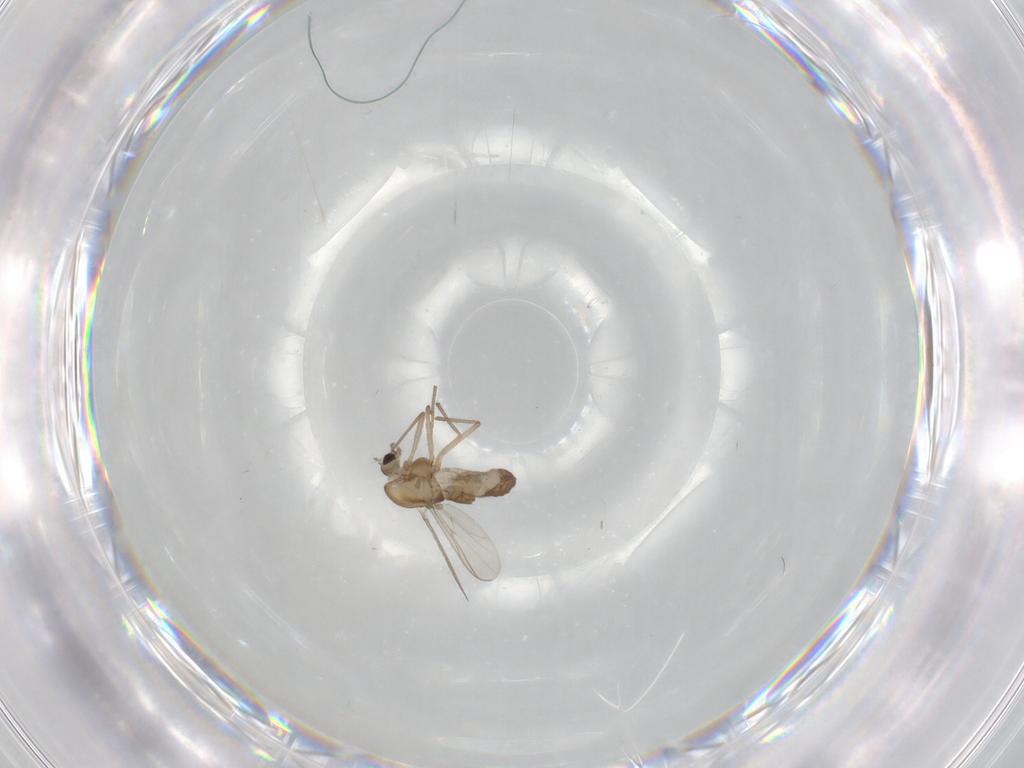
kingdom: Animalia
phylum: Arthropoda
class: Insecta
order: Diptera
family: Chironomidae
